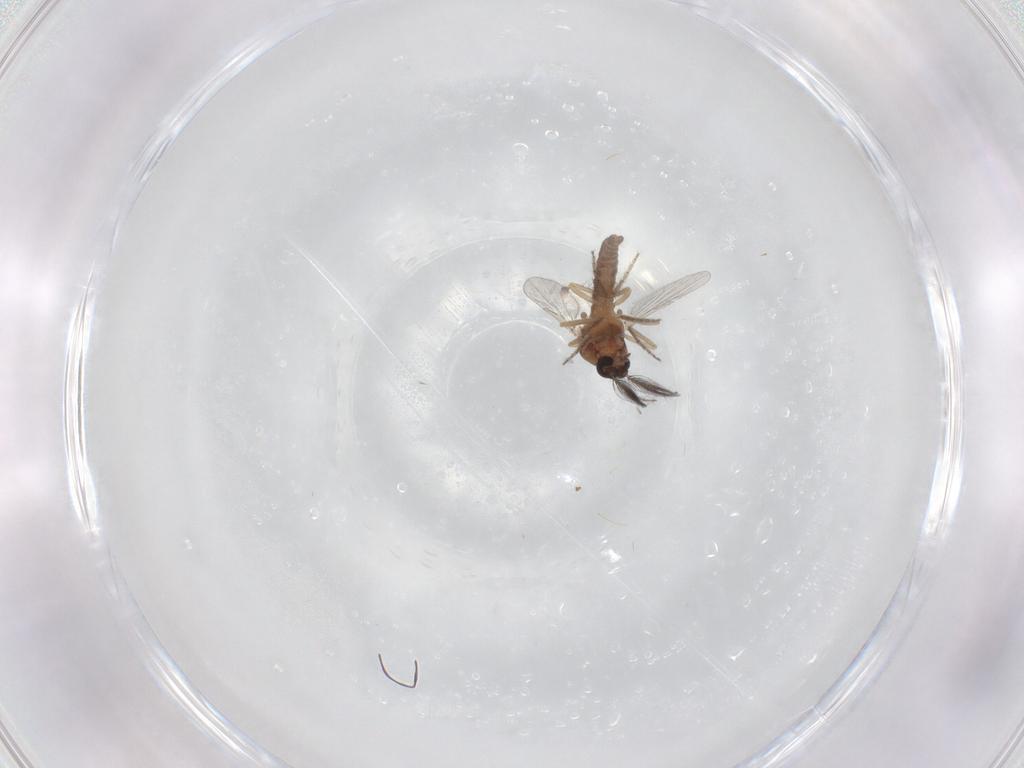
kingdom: Animalia
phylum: Arthropoda
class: Insecta
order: Diptera
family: Ceratopogonidae
